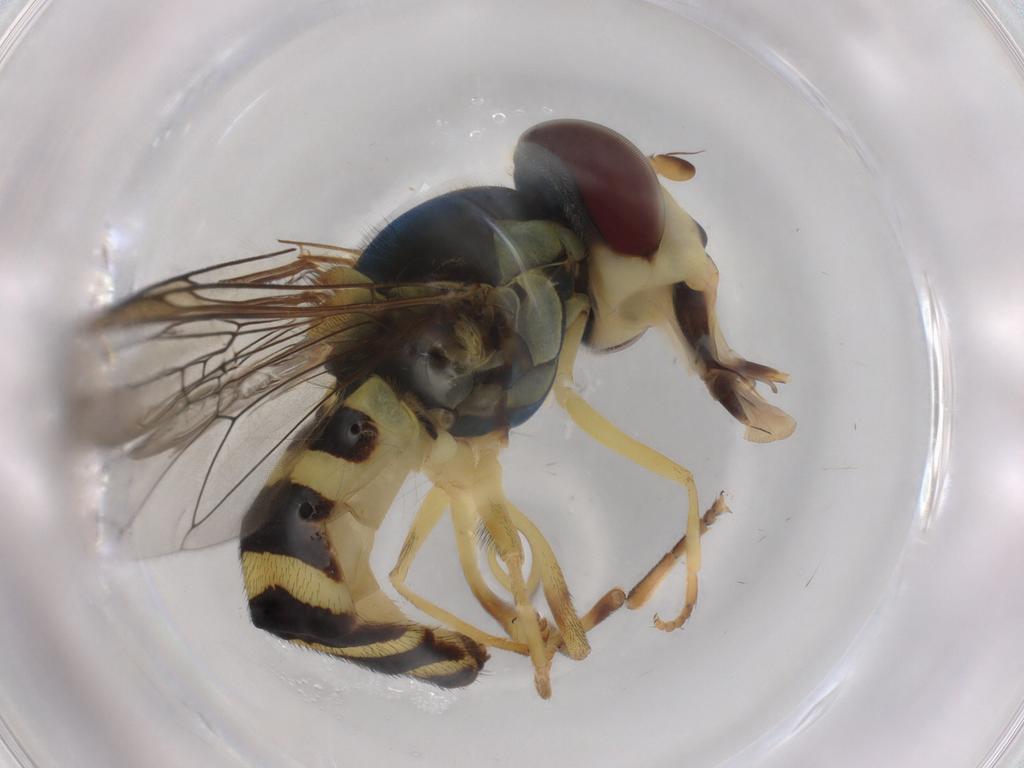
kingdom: Animalia
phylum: Arthropoda
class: Insecta
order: Diptera
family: Syrphidae
